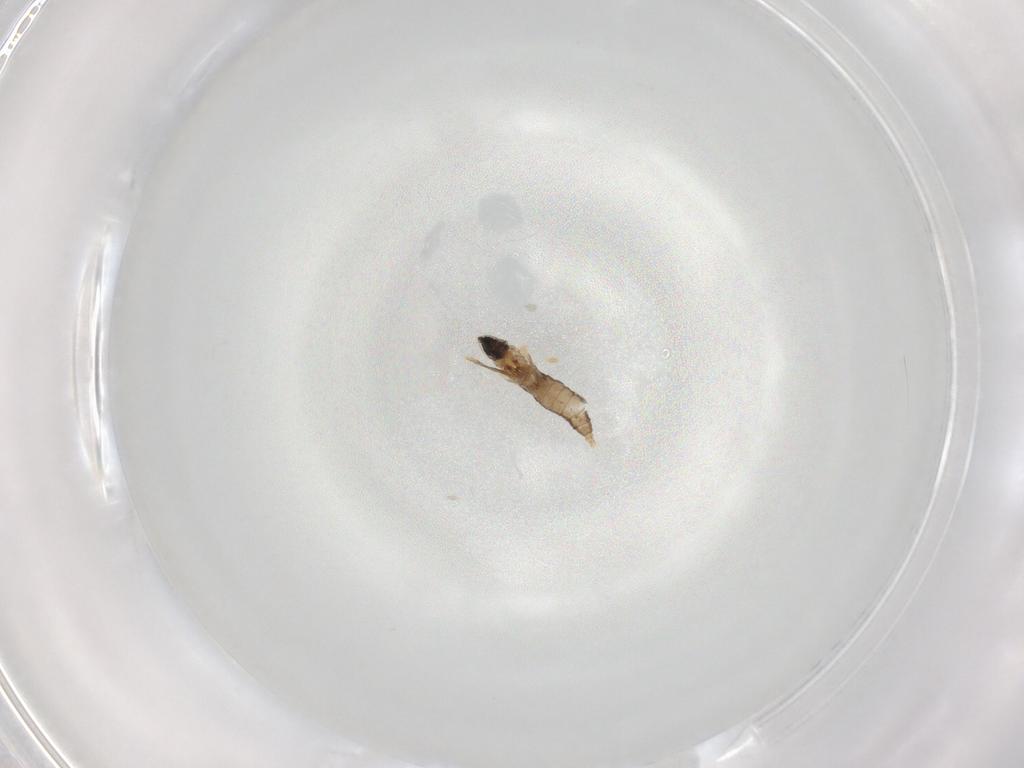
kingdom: Animalia
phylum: Arthropoda
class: Insecta
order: Diptera
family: Cecidomyiidae
